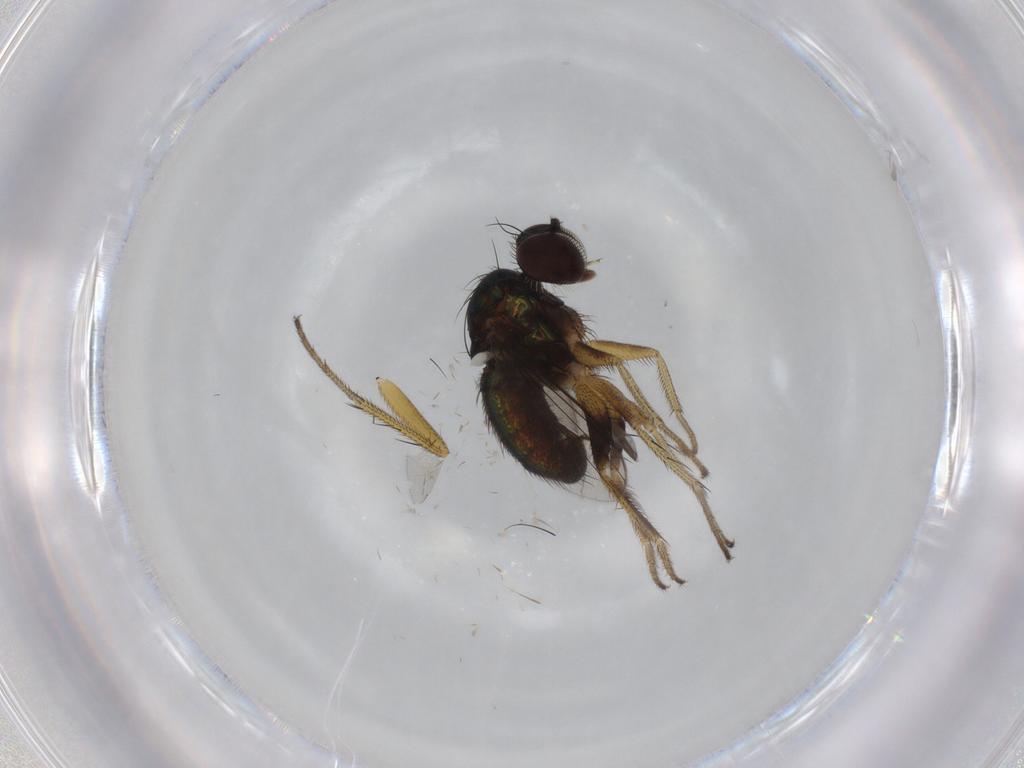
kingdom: Animalia
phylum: Arthropoda
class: Insecta
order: Diptera
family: Dolichopodidae
